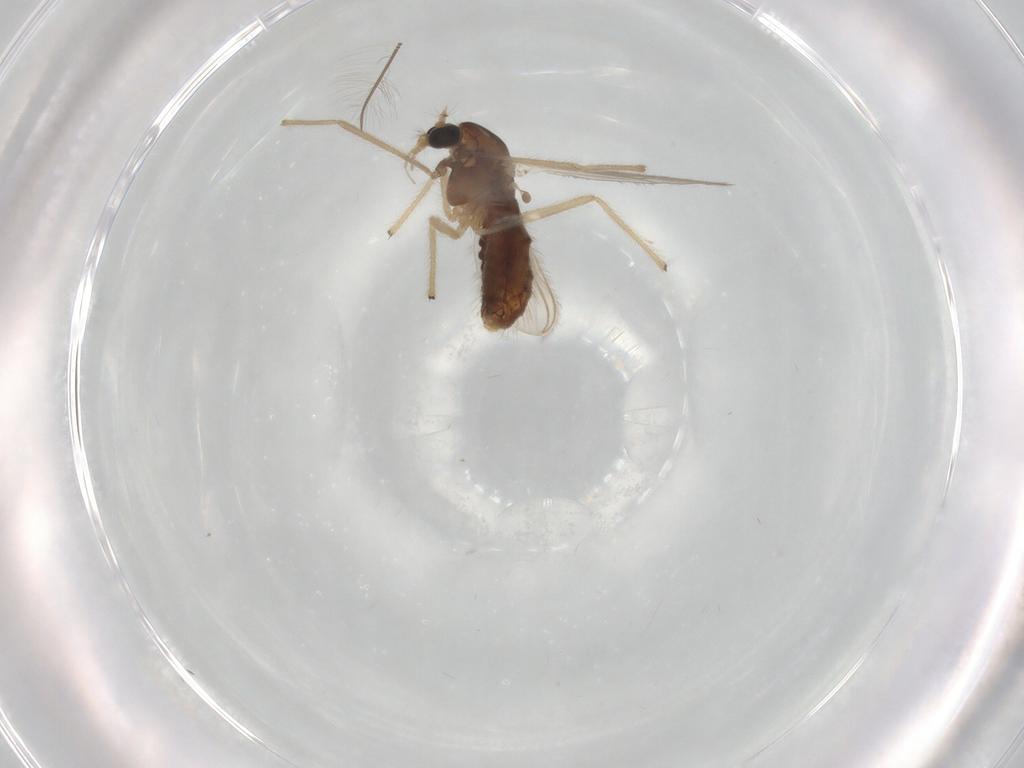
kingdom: Animalia
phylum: Arthropoda
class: Insecta
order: Diptera
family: Chironomidae
